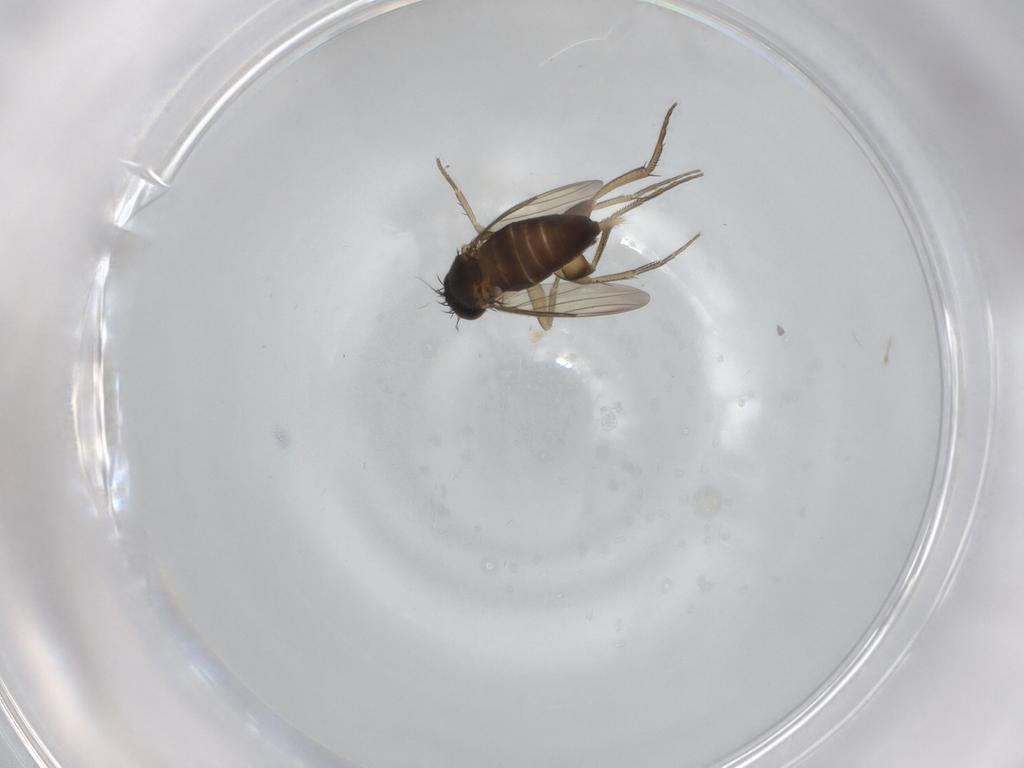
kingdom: Animalia
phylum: Arthropoda
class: Insecta
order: Diptera
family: Phoridae
